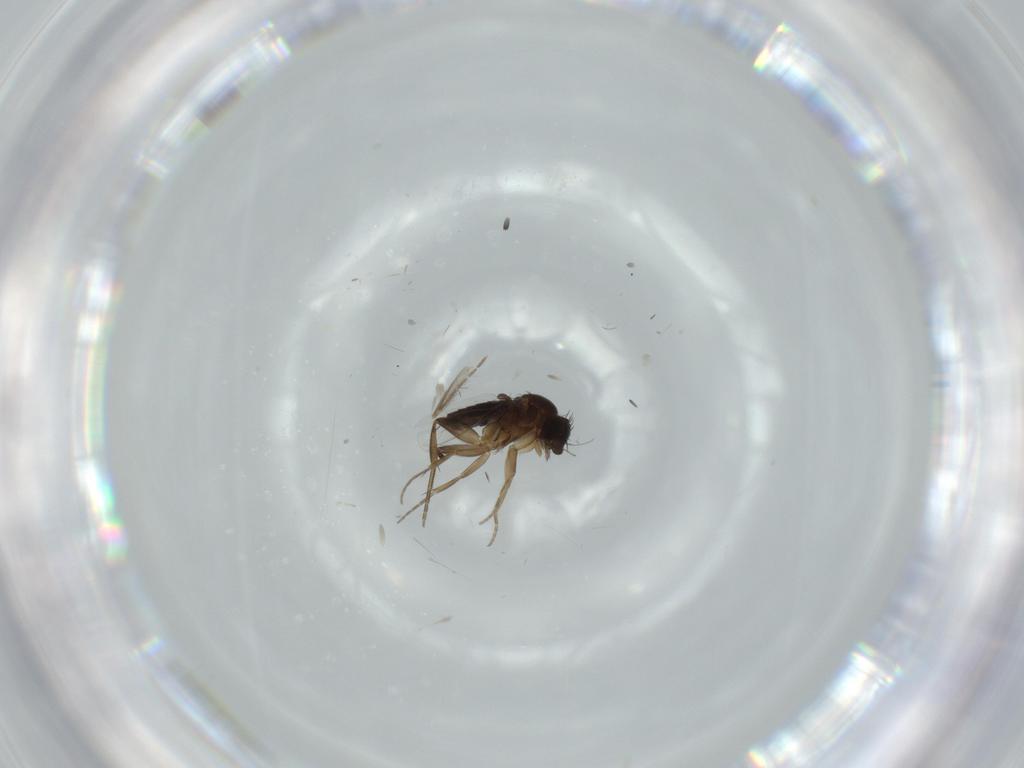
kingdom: Animalia
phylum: Arthropoda
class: Insecta
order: Diptera
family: Phoridae
